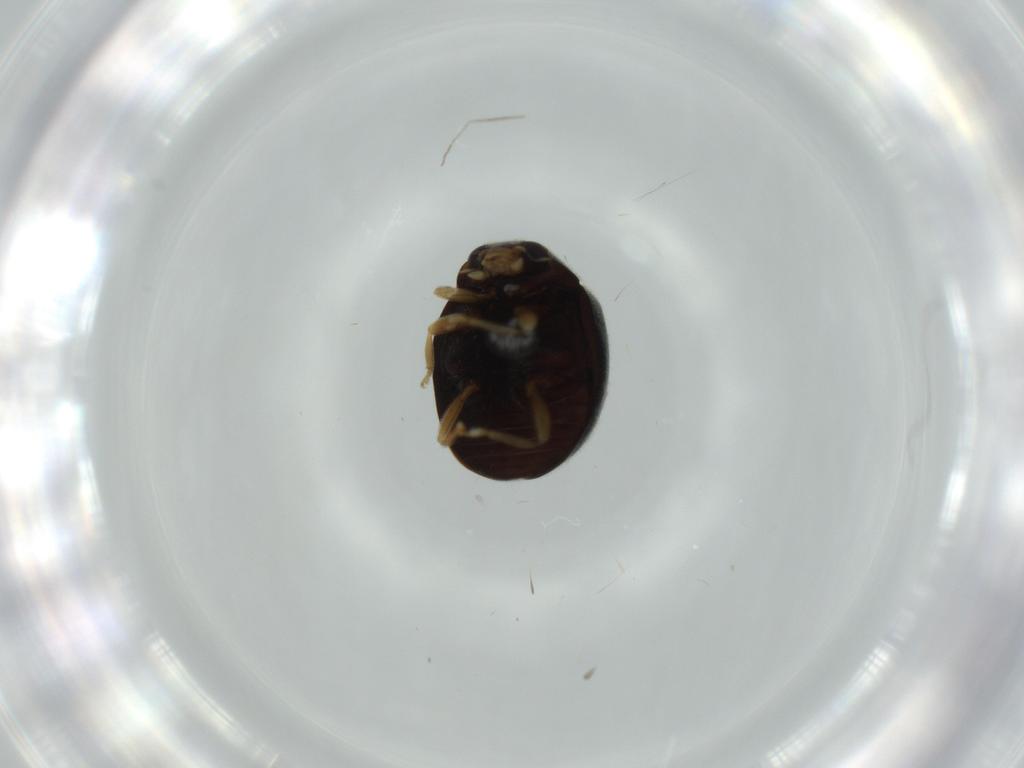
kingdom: Animalia
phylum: Arthropoda
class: Insecta
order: Coleoptera
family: Coccinellidae
